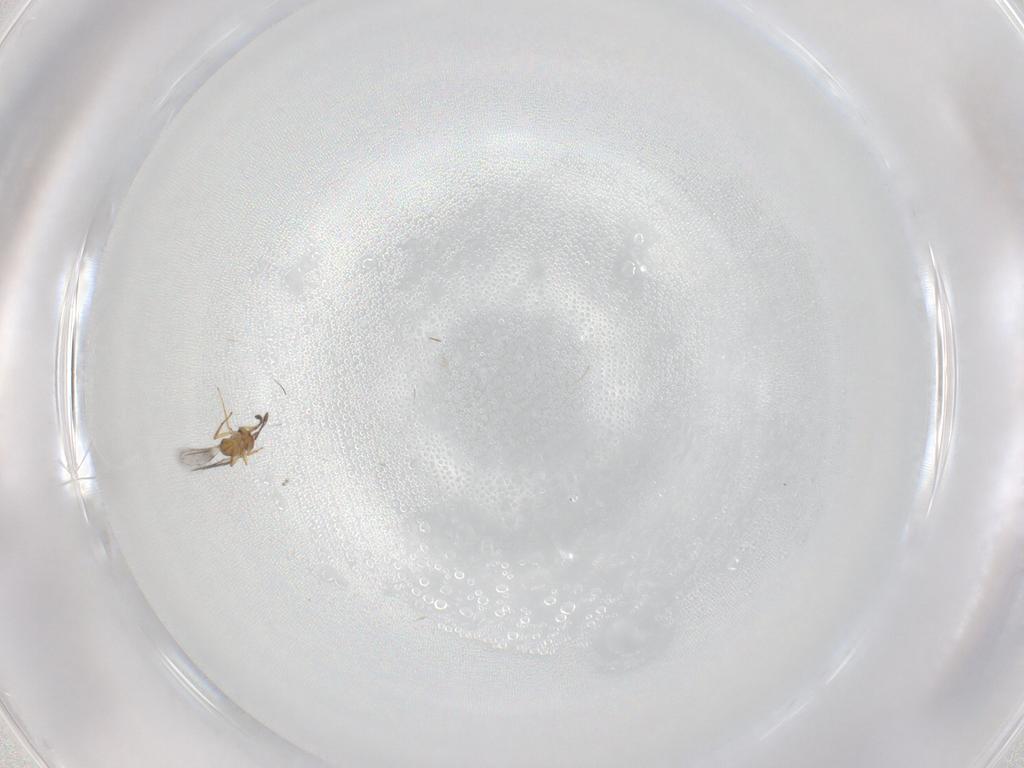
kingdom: Animalia
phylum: Arthropoda
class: Insecta
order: Hymenoptera
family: Mymaridae
